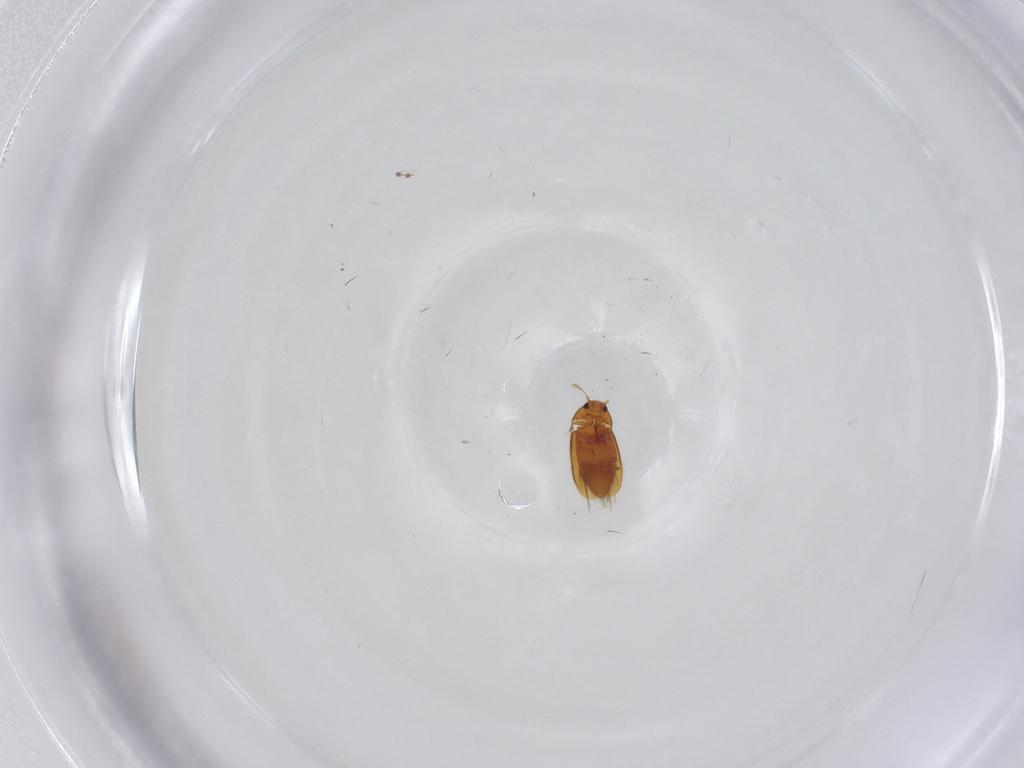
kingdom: Animalia
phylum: Arthropoda
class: Insecta
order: Coleoptera
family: Ptiliidae
